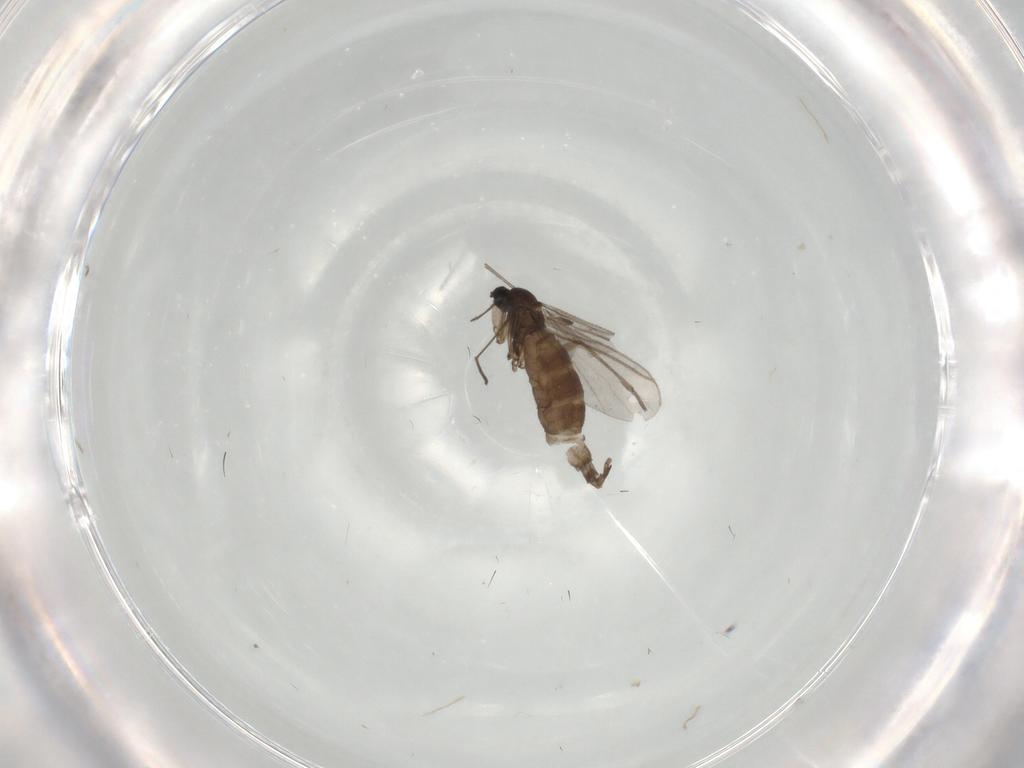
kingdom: Animalia
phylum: Arthropoda
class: Insecta
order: Diptera
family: Chironomidae
